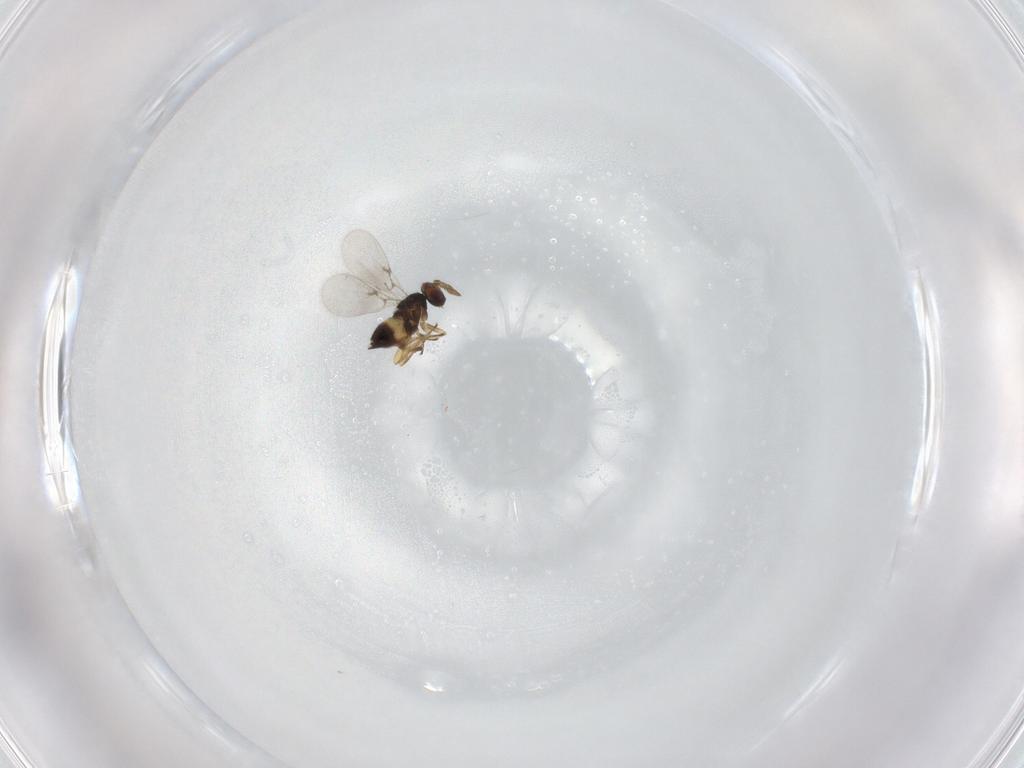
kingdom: Animalia
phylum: Arthropoda
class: Insecta
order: Hymenoptera
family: Eulophidae
